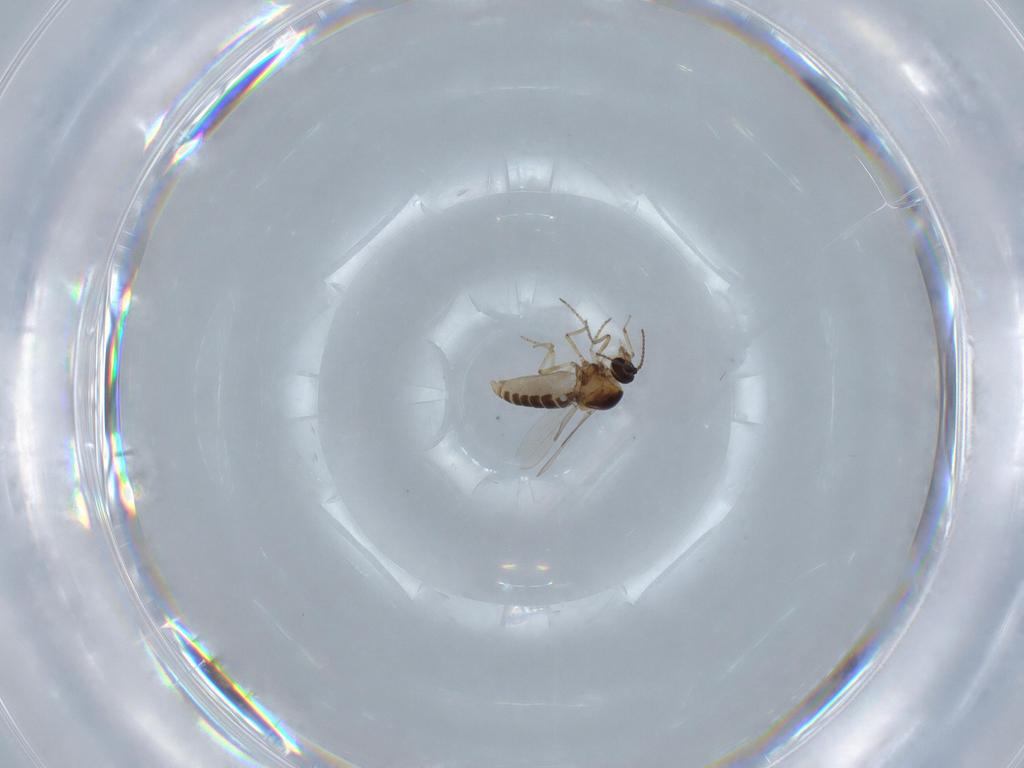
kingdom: Animalia
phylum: Arthropoda
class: Insecta
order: Diptera
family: Ceratopogonidae
